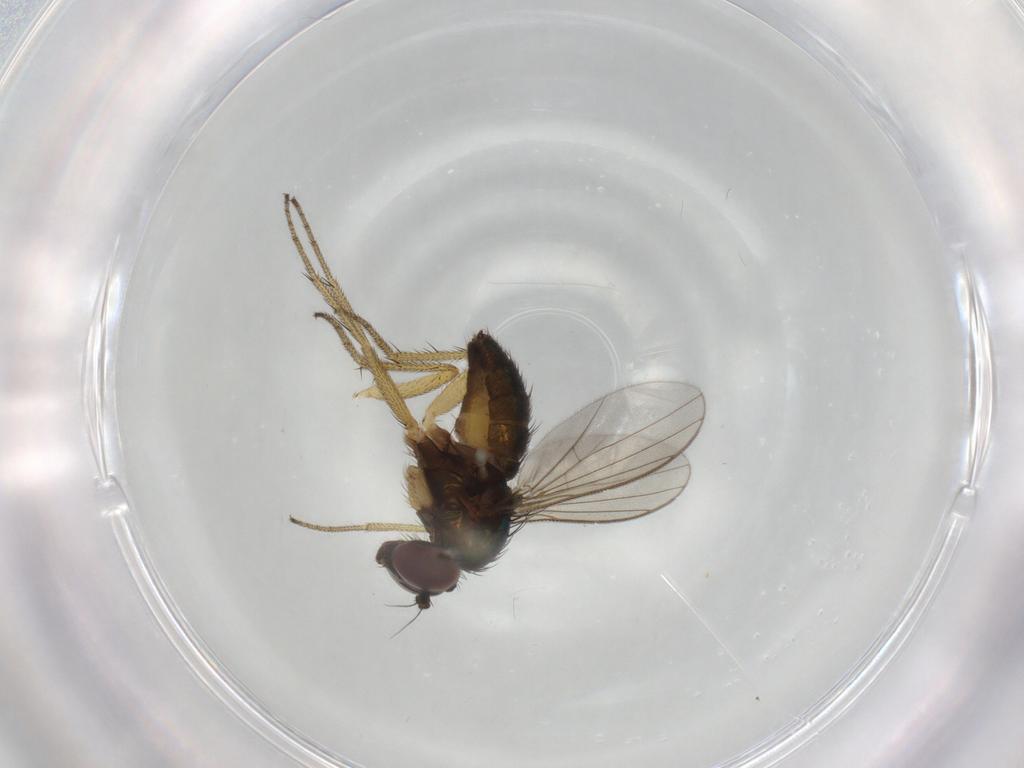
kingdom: Animalia
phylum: Arthropoda
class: Insecta
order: Diptera
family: Dolichopodidae
